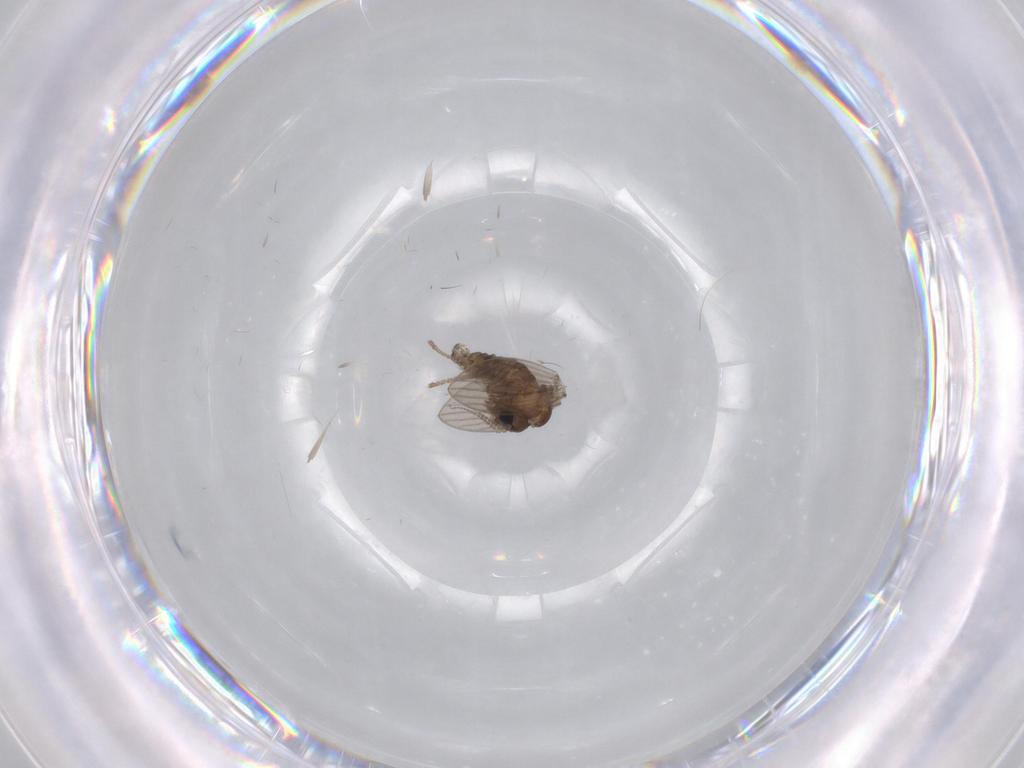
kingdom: Animalia
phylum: Arthropoda
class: Insecta
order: Diptera
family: Psychodidae
